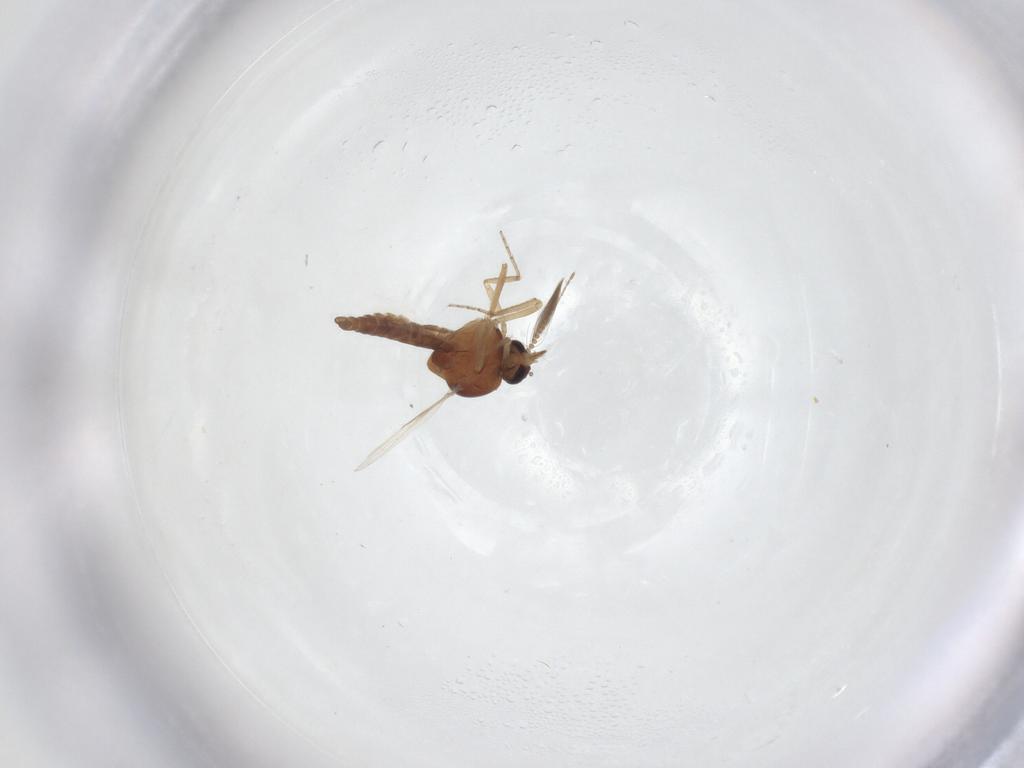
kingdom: Animalia
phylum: Arthropoda
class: Insecta
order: Diptera
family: Ceratopogonidae
